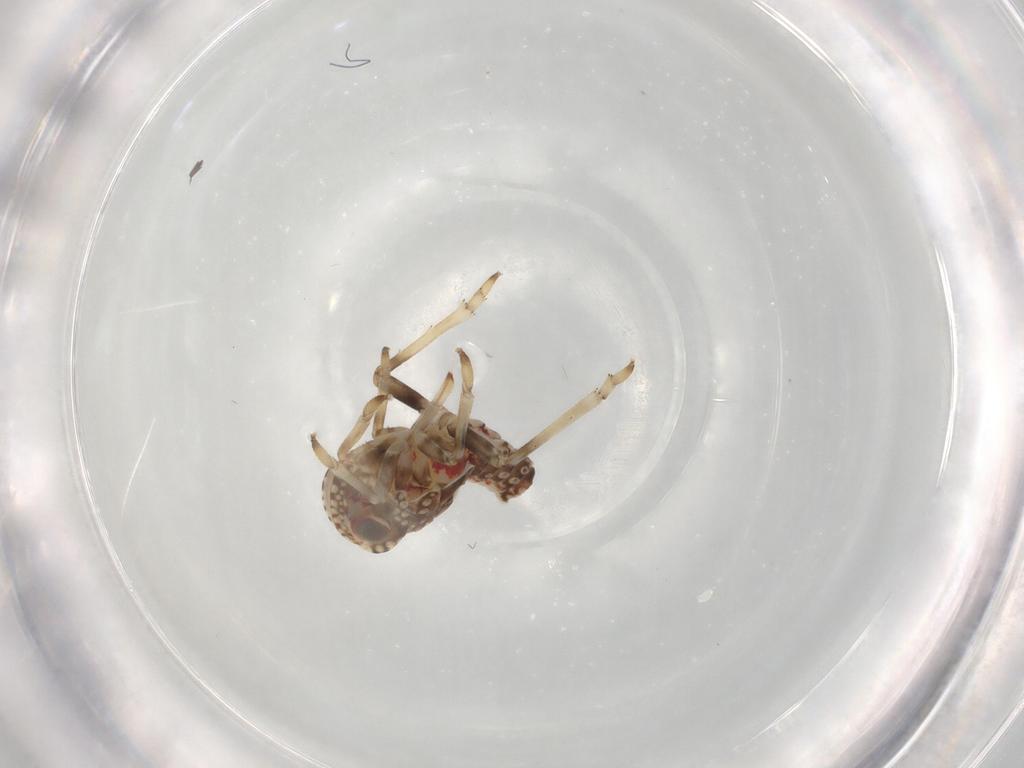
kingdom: Animalia
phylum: Arthropoda
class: Insecta
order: Hemiptera
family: Tropiduchidae
